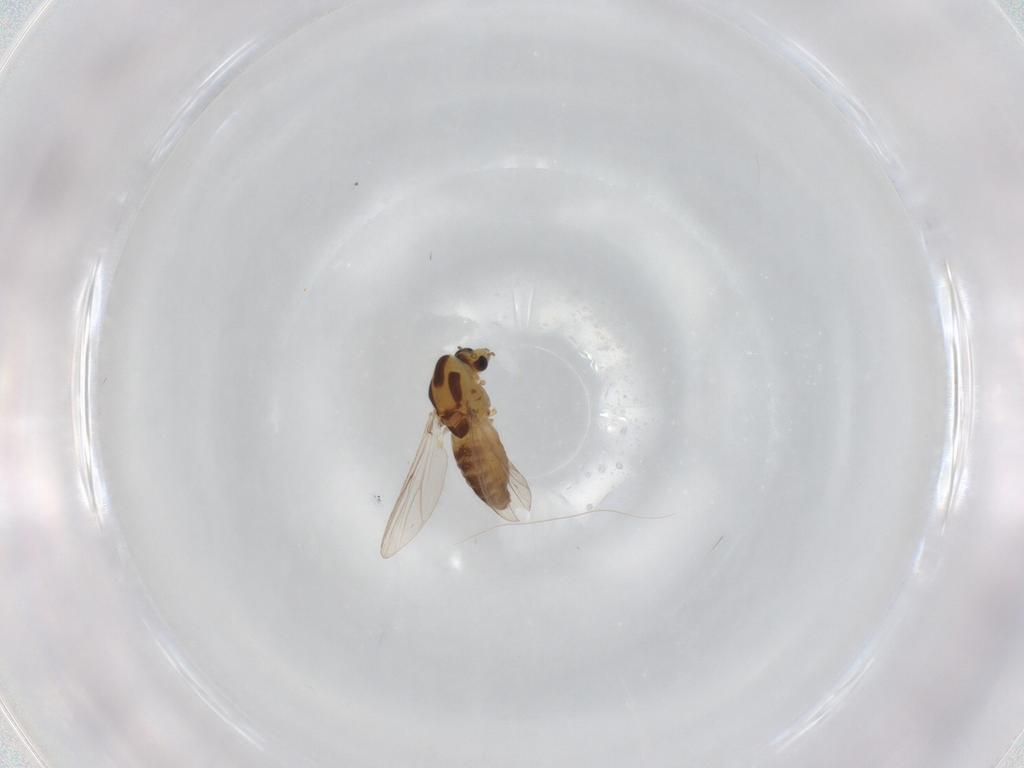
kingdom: Animalia
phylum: Arthropoda
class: Insecta
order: Diptera
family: Chironomidae
